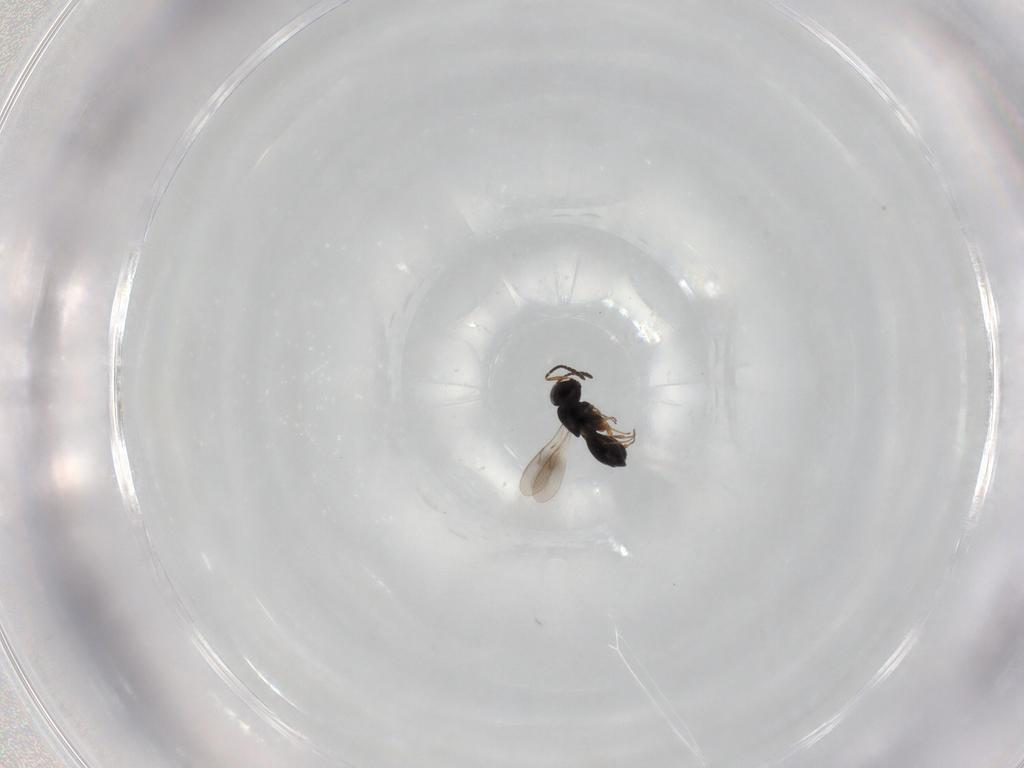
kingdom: Animalia
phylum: Arthropoda
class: Insecta
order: Hymenoptera
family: Scelionidae
